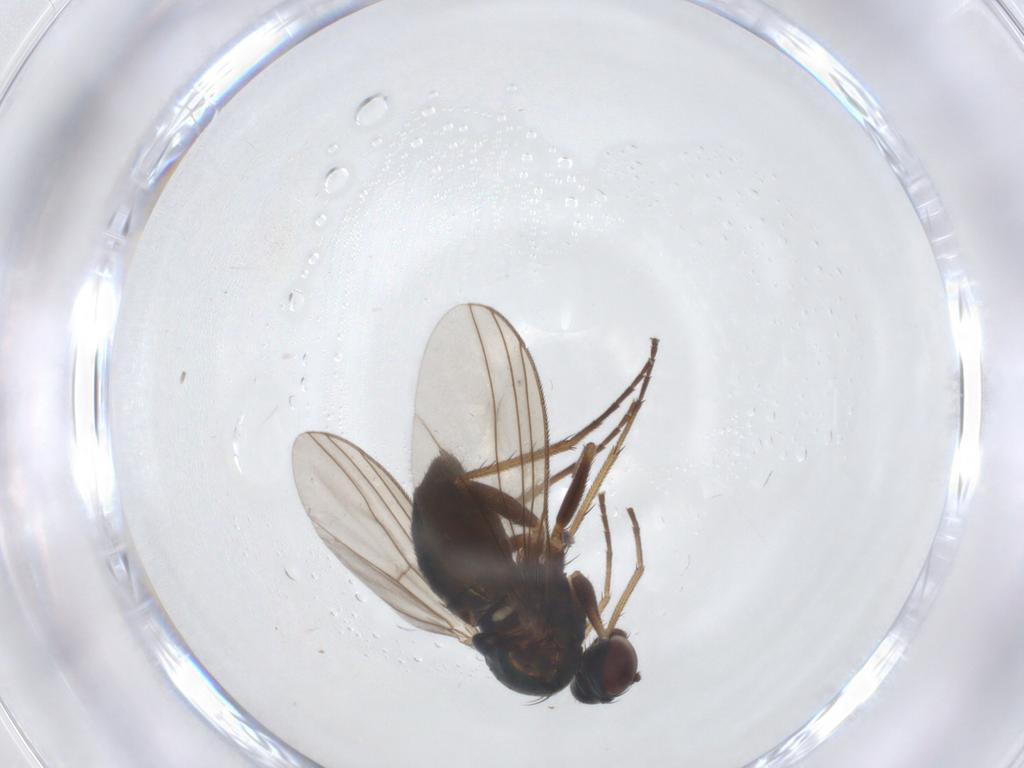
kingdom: Animalia
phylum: Arthropoda
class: Insecta
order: Diptera
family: Dolichopodidae
